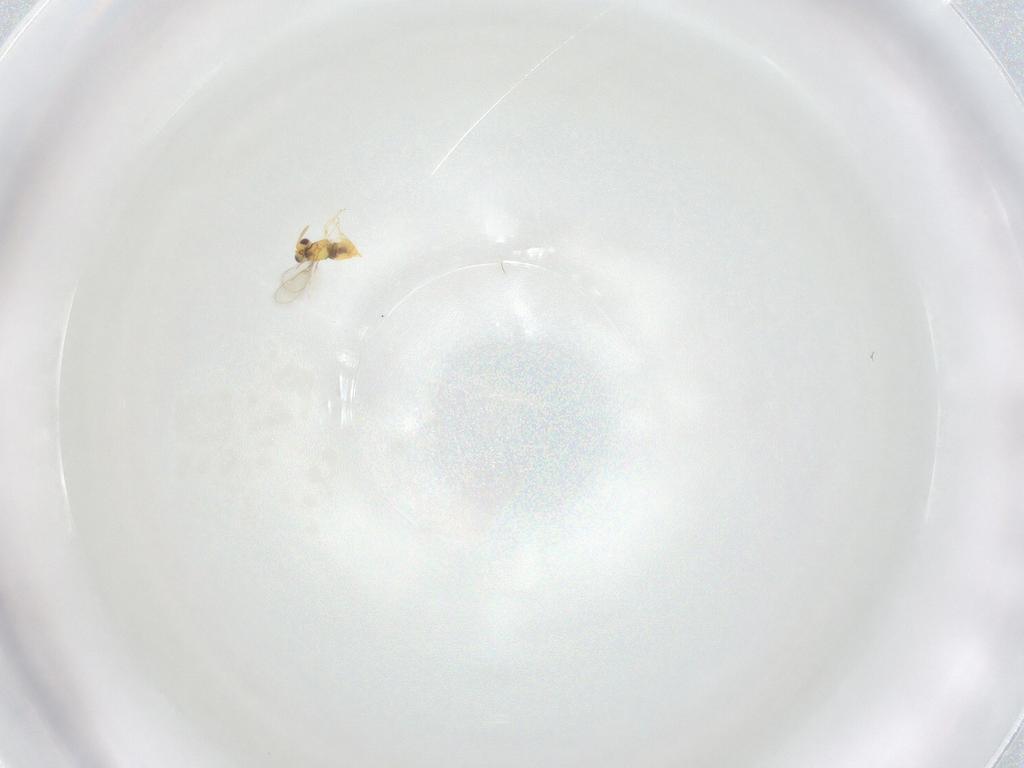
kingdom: Animalia
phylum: Arthropoda
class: Insecta
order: Hymenoptera
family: Aphelinidae
